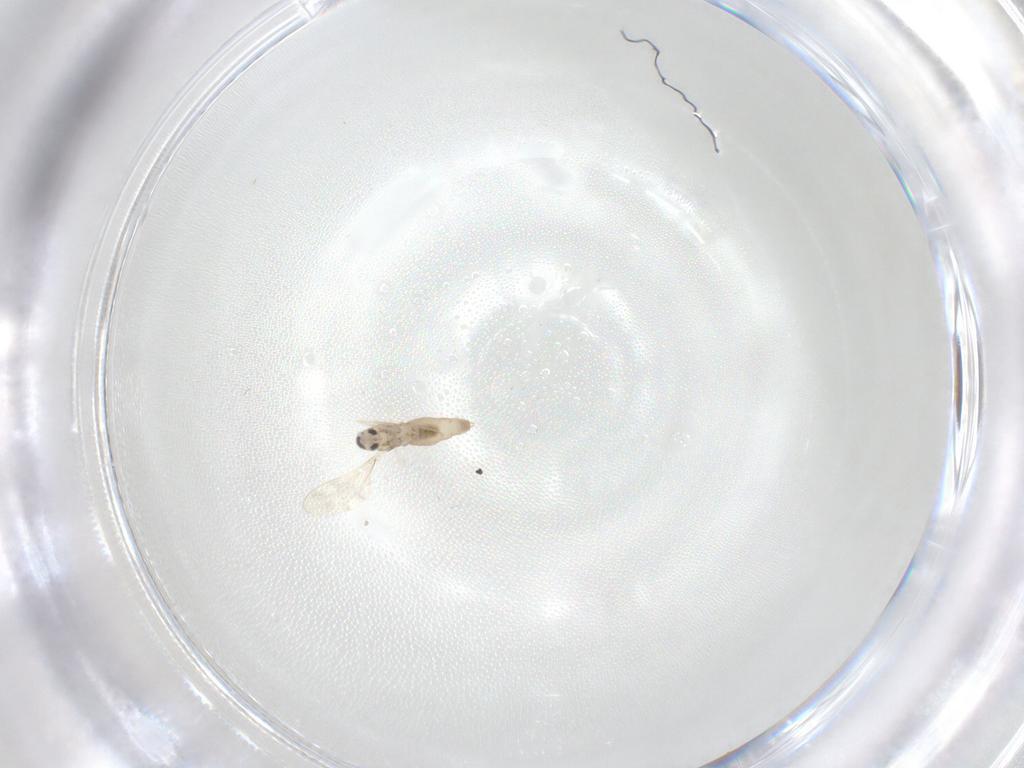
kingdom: Animalia
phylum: Arthropoda
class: Insecta
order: Diptera
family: Cecidomyiidae
